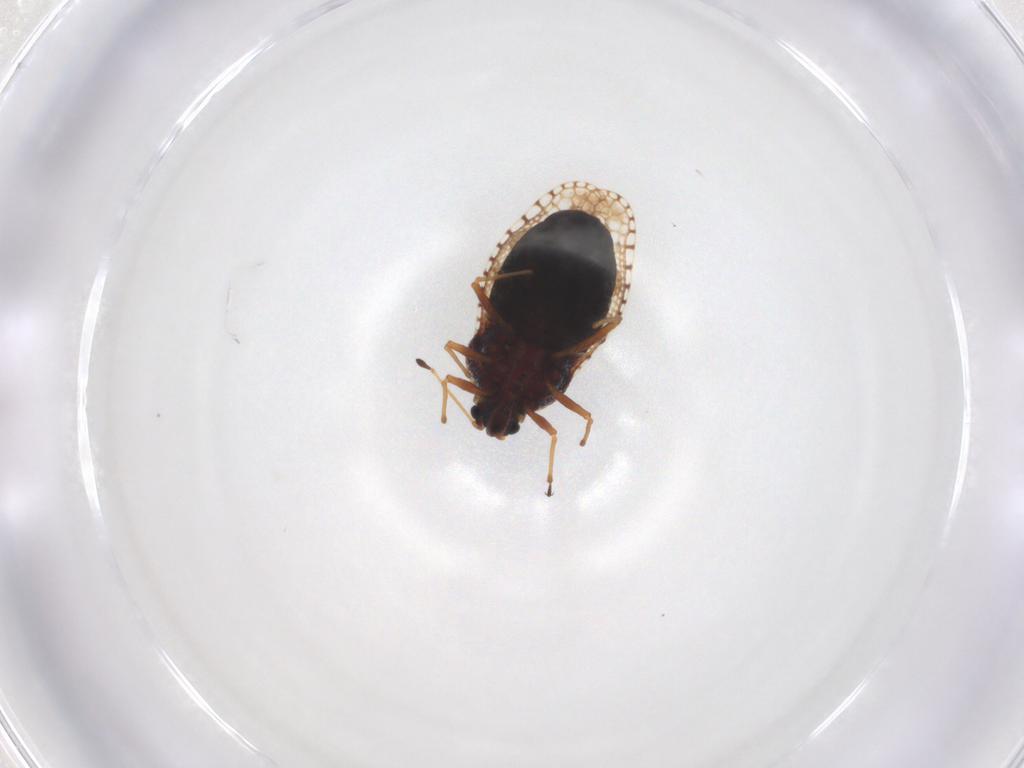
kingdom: Animalia
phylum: Arthropoda
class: Insecta
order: Hemiptera
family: Tingidae
